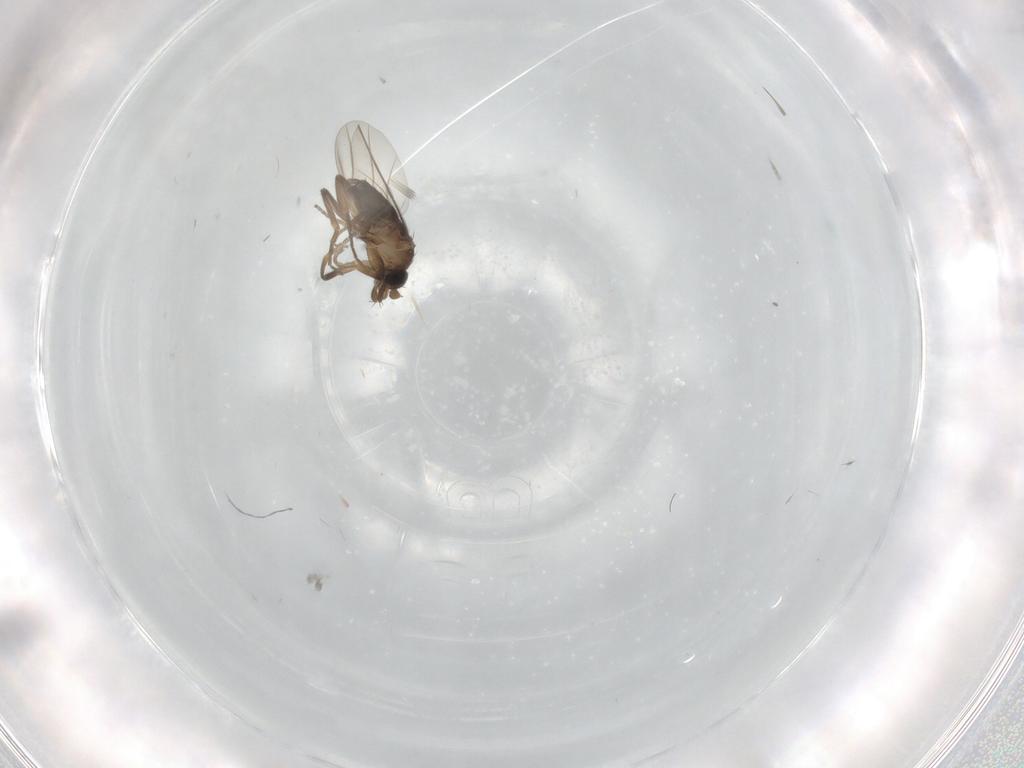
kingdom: Animalia
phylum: Arthropoda
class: Insecta
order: Diptera
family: Phoridae
